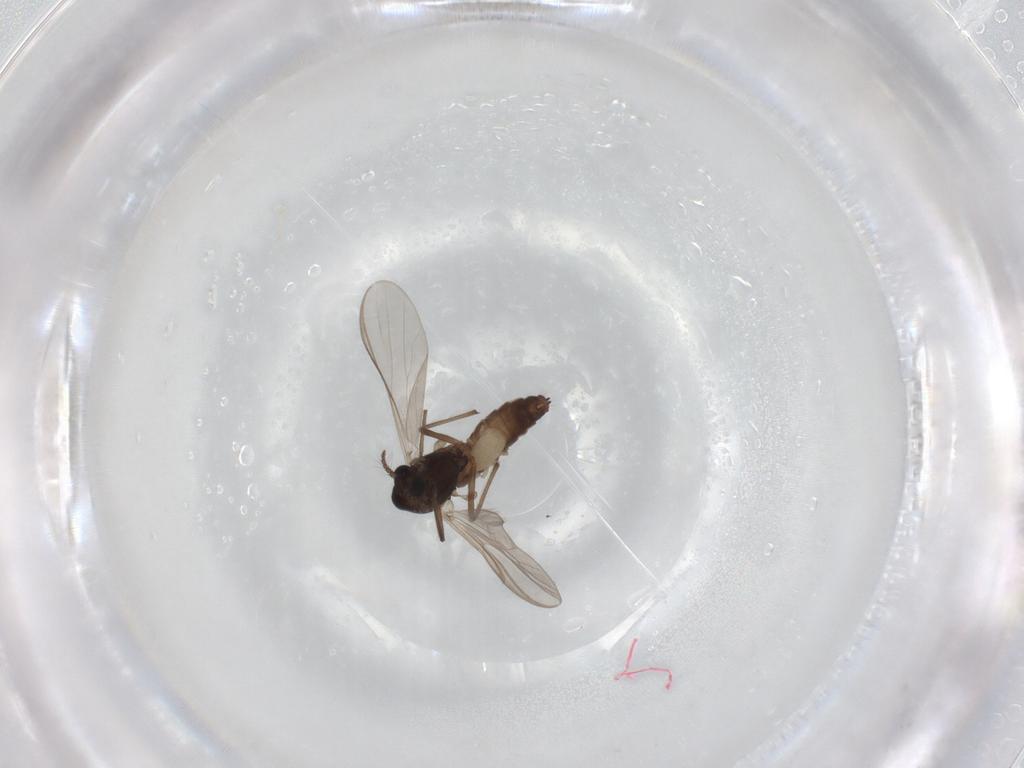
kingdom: Animalia
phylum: Arthropoda
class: Insecta
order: Diptera
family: Chironomidae
